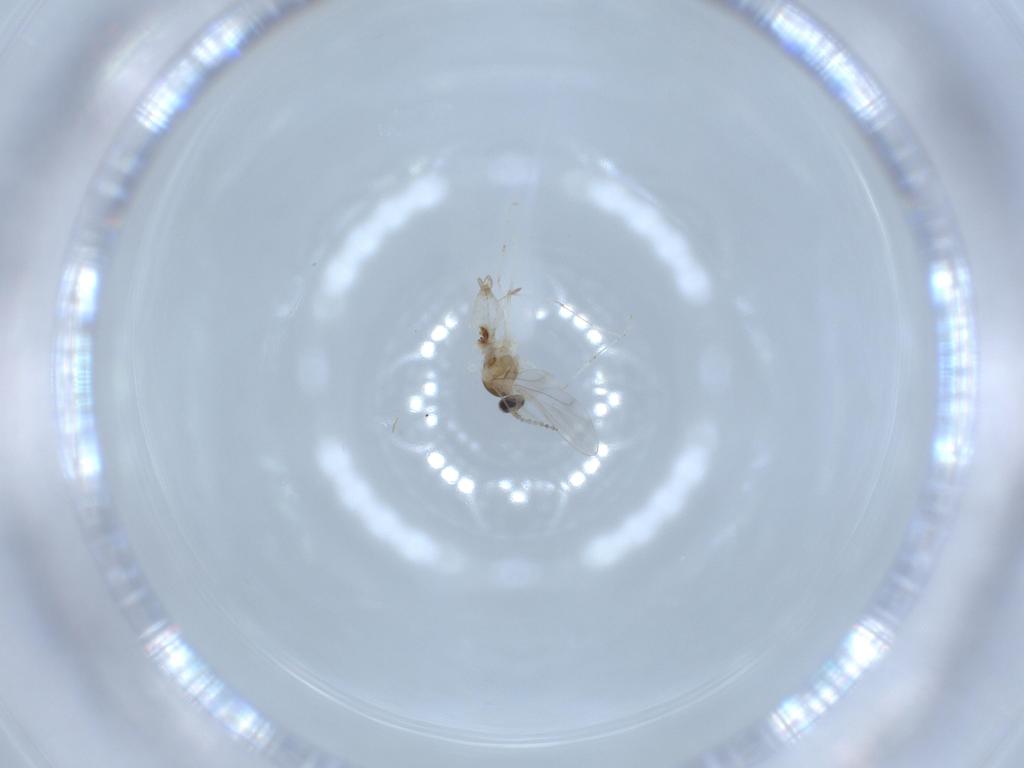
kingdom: Animalia
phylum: Arthropoda
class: Insecta
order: Diptera
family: Cecidomyiidae
